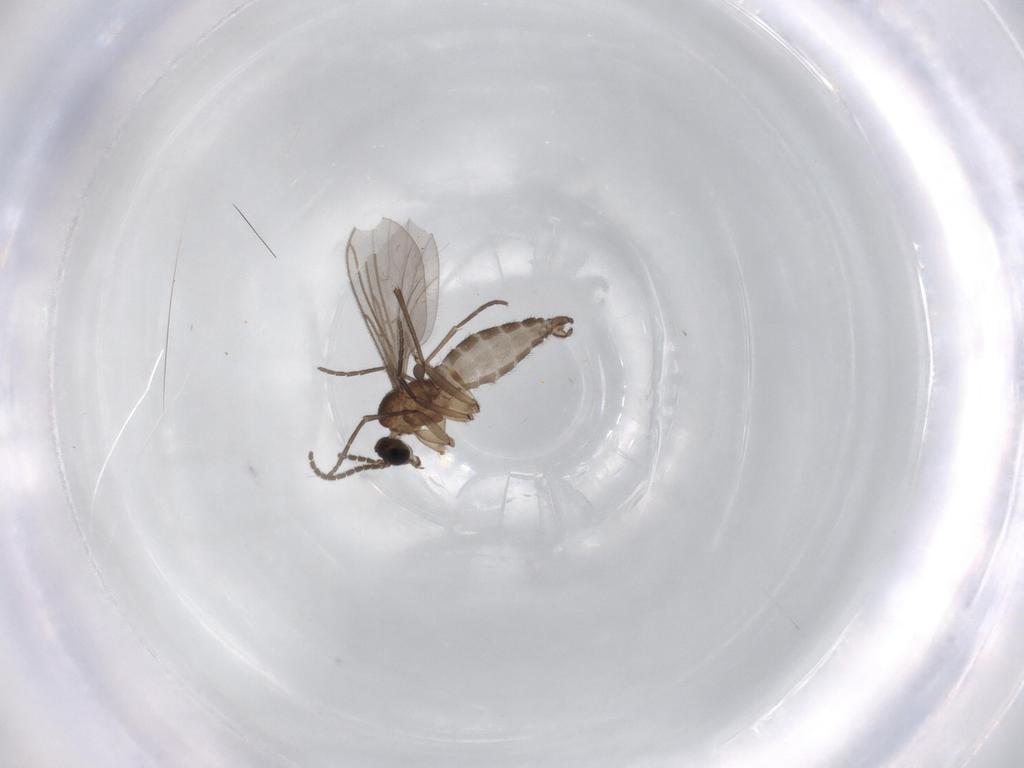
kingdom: Animalia
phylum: Arthropoda
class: Insecta
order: Diptera
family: Sciaridae
